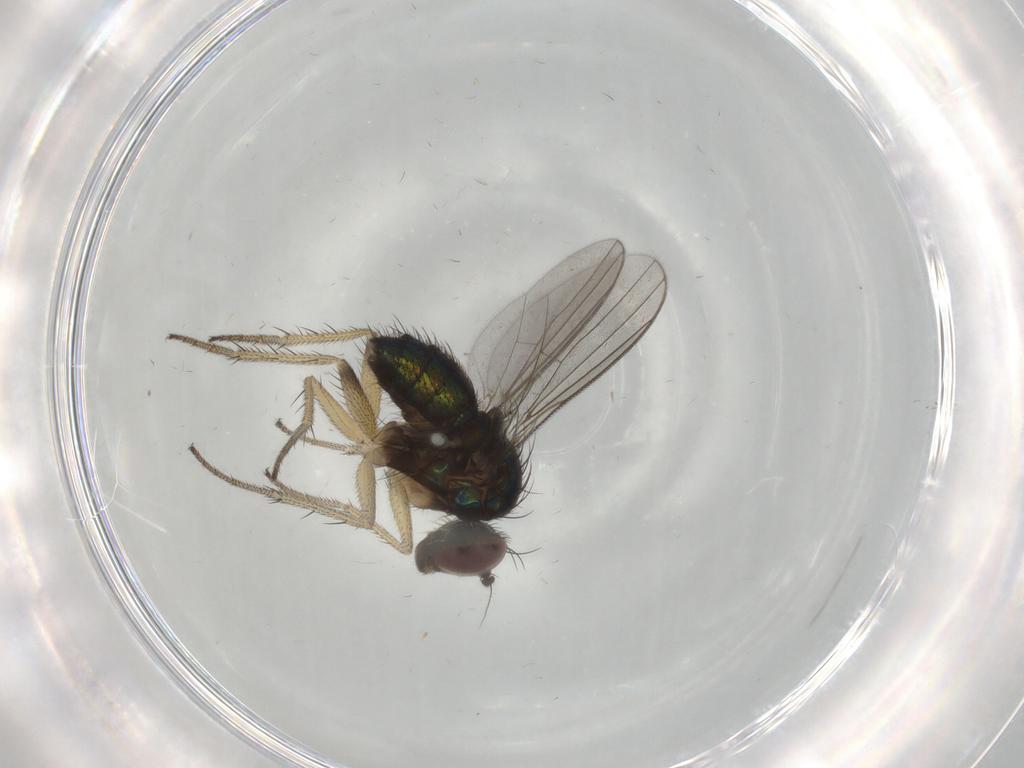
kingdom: Animalia
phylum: Arthropoda
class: Insecta
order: Diptera
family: Dolichopodidae
